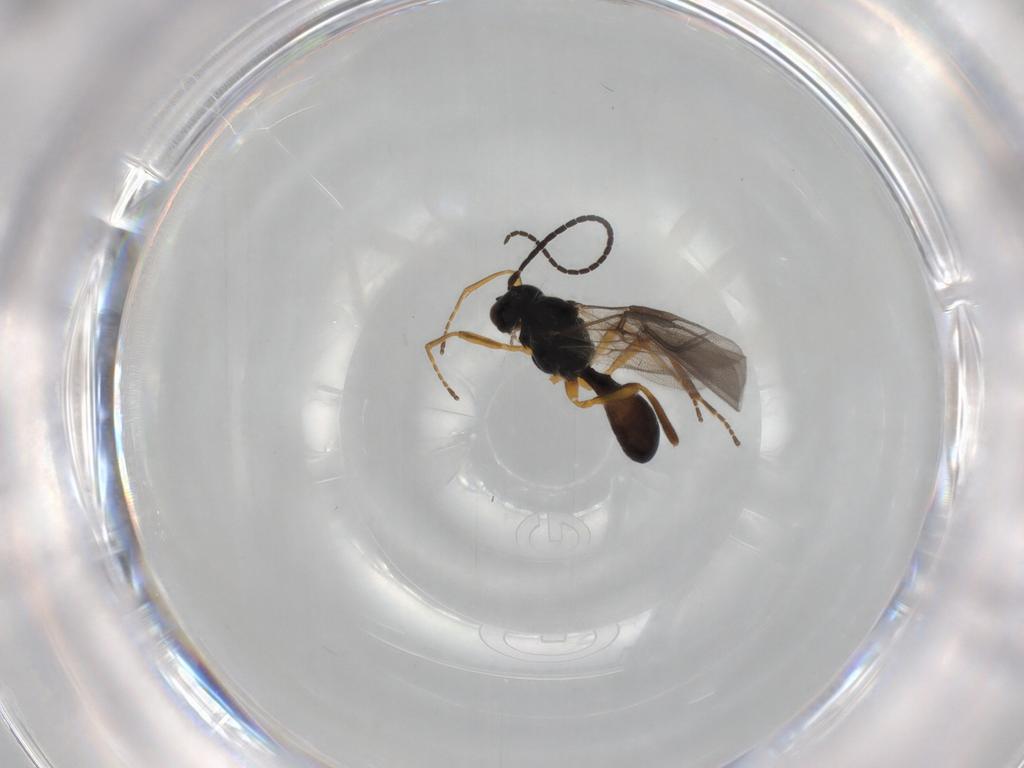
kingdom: Animalia
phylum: Arthropoda
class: Insecta
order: Hymenoptera
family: Braconidae
